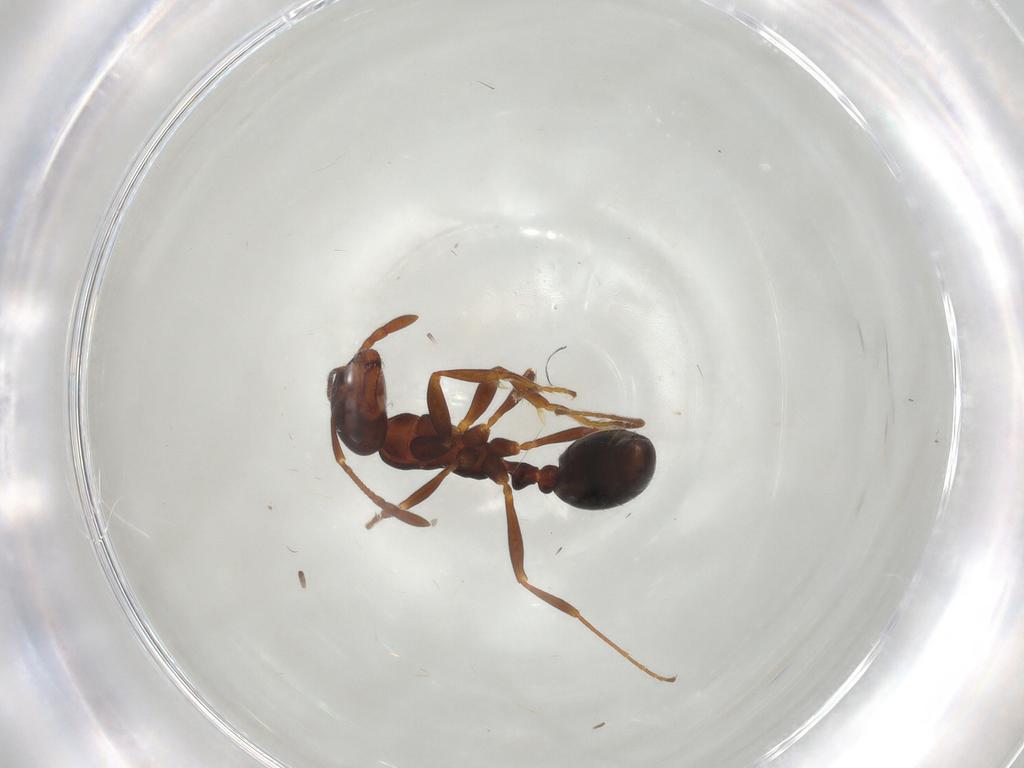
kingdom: Animalia
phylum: Arthropoda
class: Insecta
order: Hymenoptera
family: Formicidae
